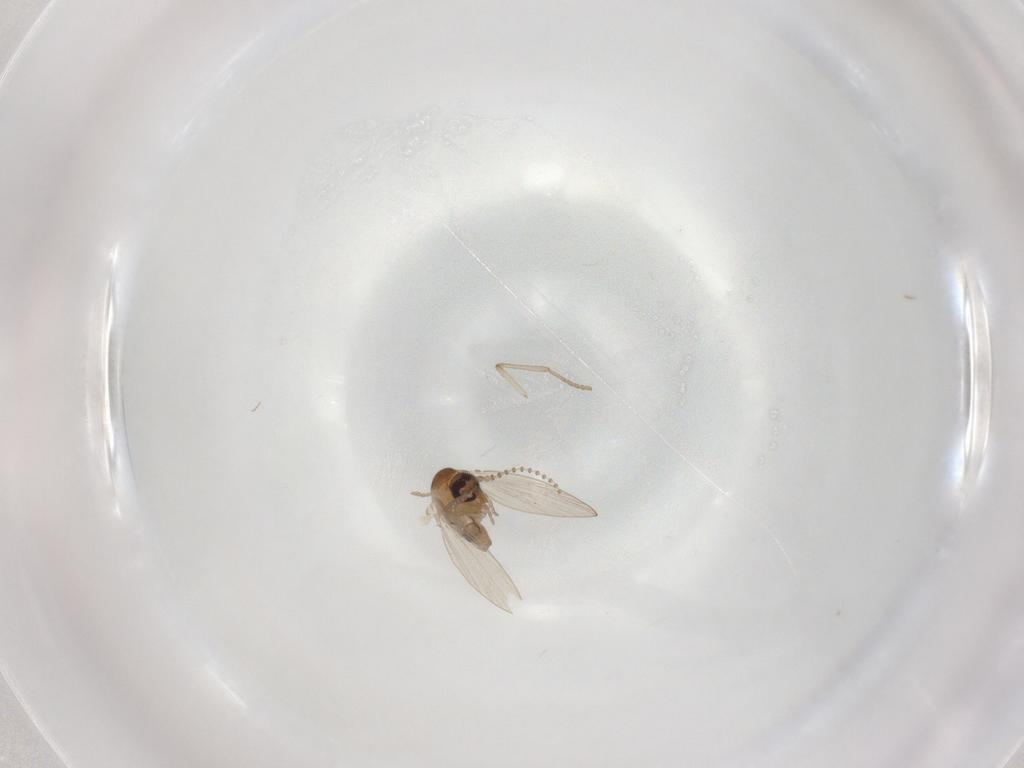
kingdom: Animalia
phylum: Arthropoda
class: Insecta
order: Diptera
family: Psychodidae
